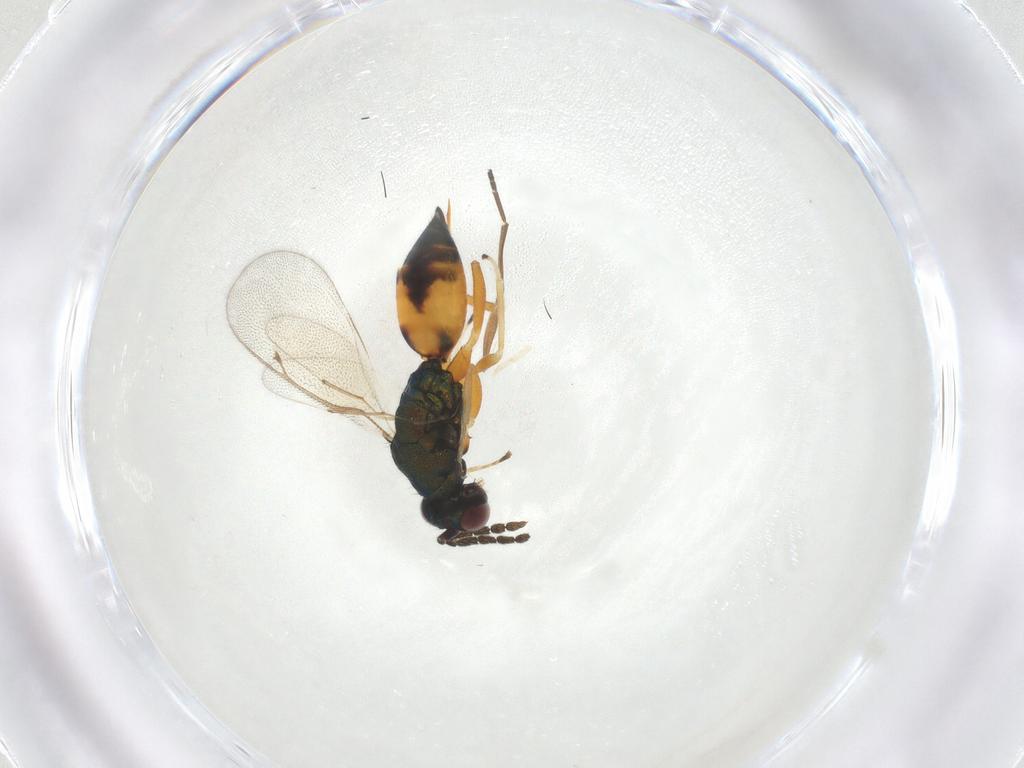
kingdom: Animalia
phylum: Arthropoda
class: Insecta
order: Hymenoptera
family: Eulophidae
